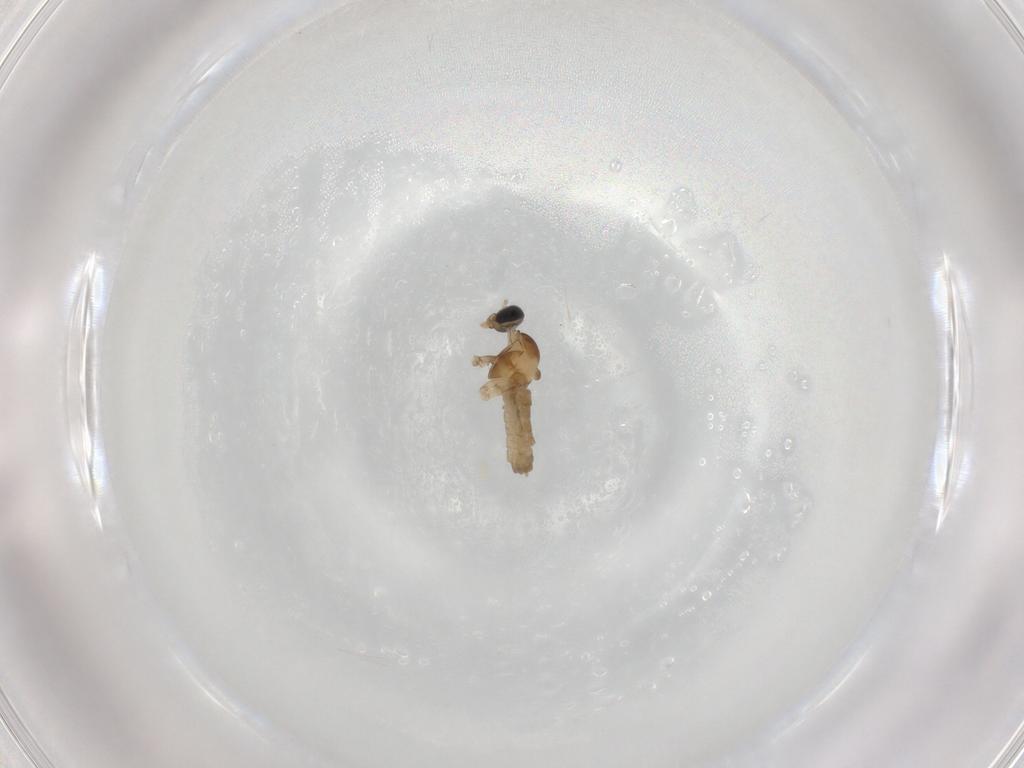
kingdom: Animalia
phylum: Arthropoda
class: Insecta
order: Diptera
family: Cecidomyiidae
